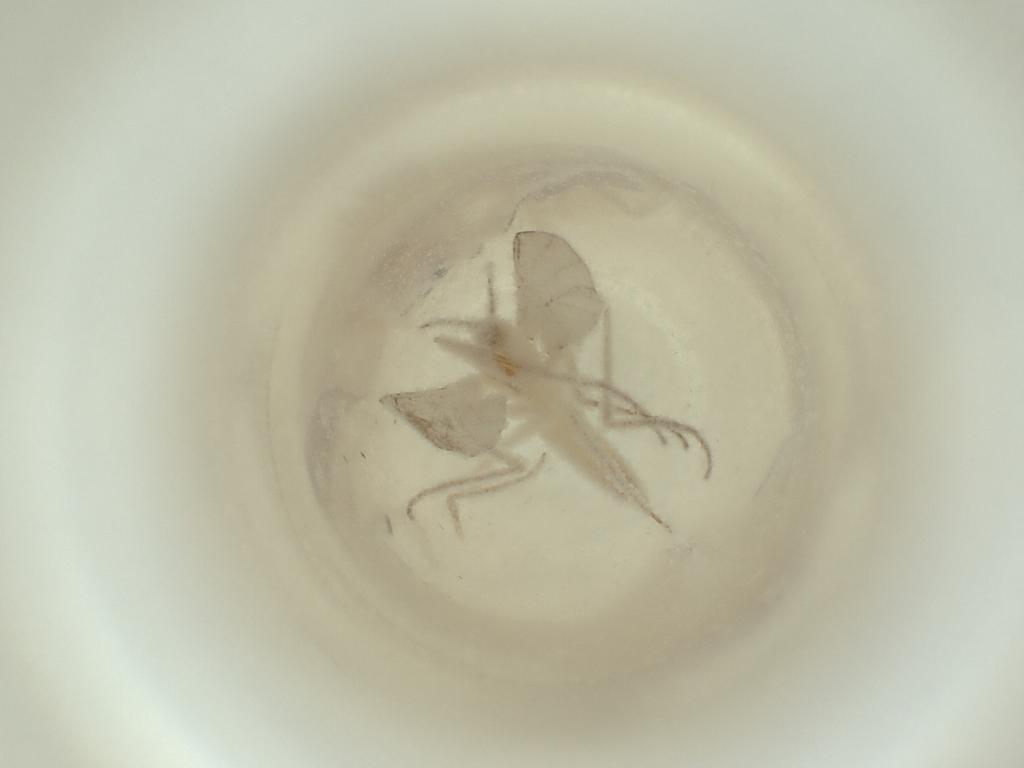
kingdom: Animalia
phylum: Arthropoda
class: Insecta
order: Diptera
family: Cecidomyiidae
